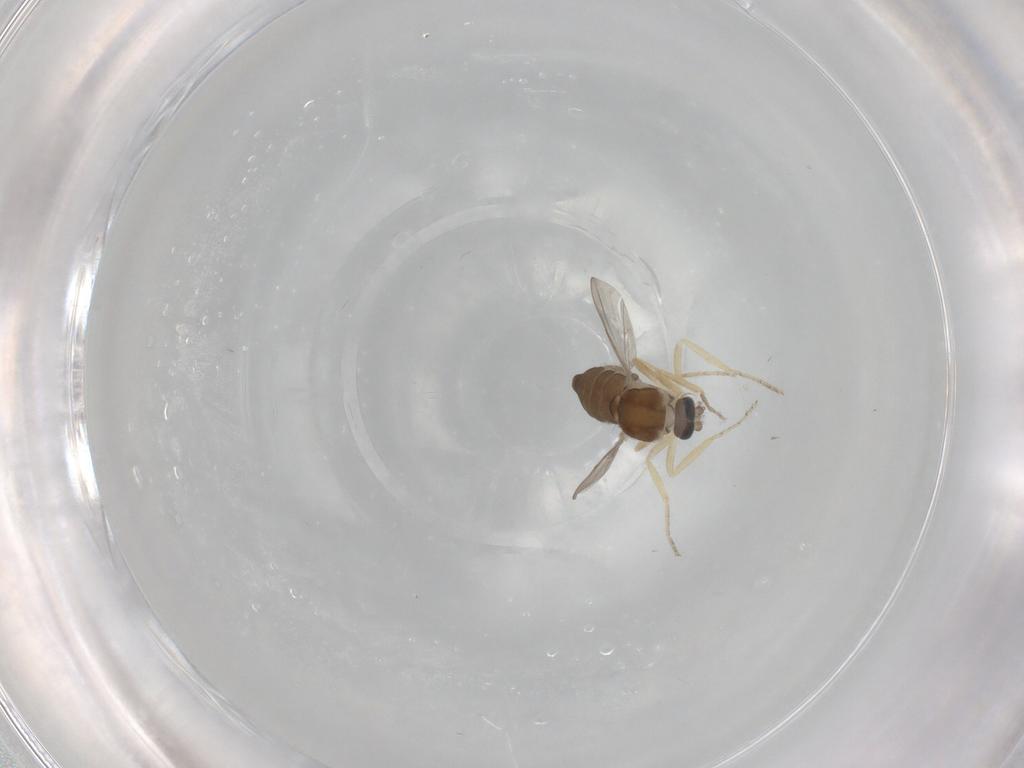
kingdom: Animalia
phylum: Arthropoda
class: Insecta
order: Diptera
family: Ceratopogonidae
